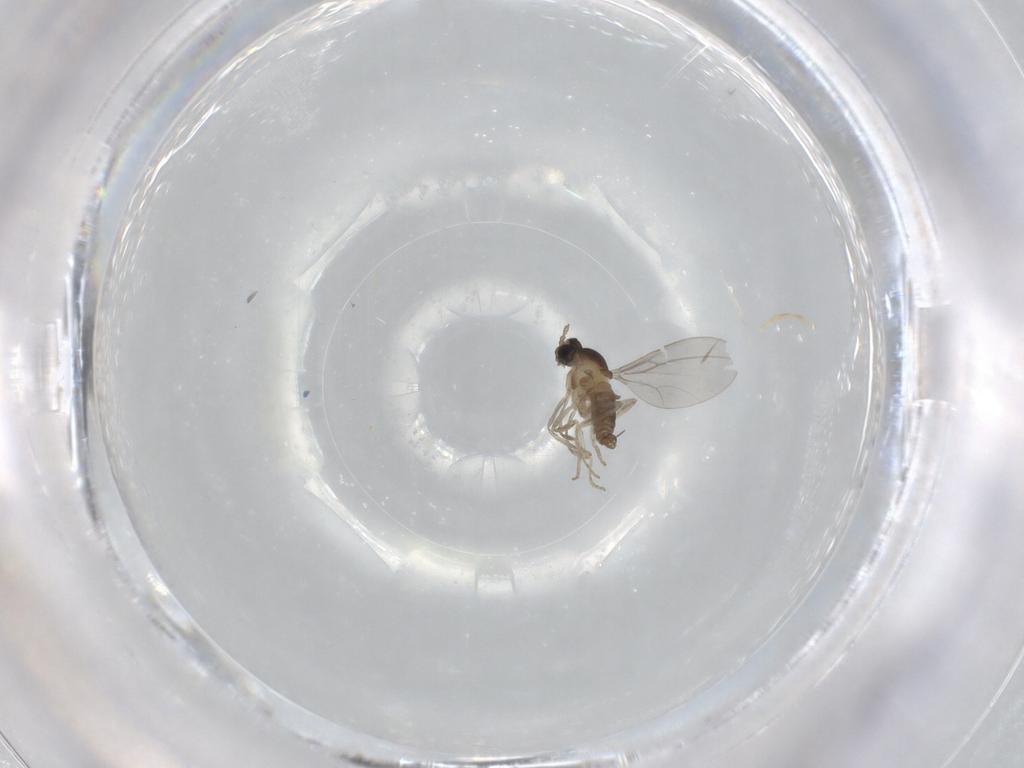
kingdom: Animalia
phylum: Arthropoda
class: Insecta
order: Diptera
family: Cecidomyiidae
